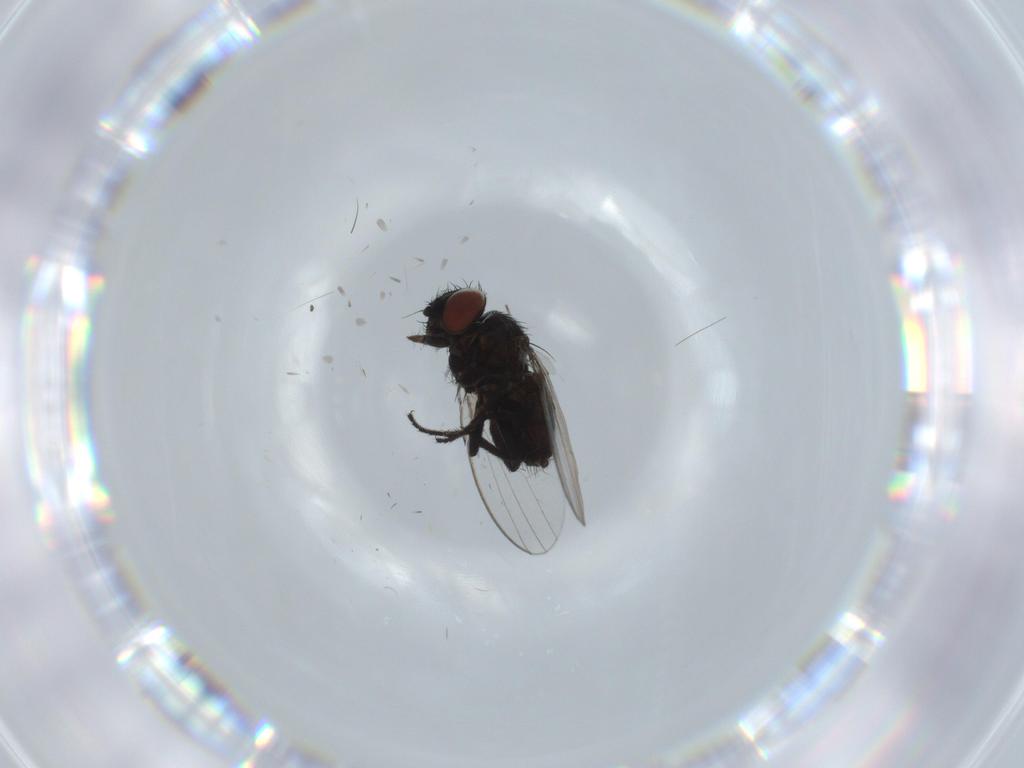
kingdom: Animalia
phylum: Arthropoda
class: Insecta
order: Diptera
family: Milichiidae
